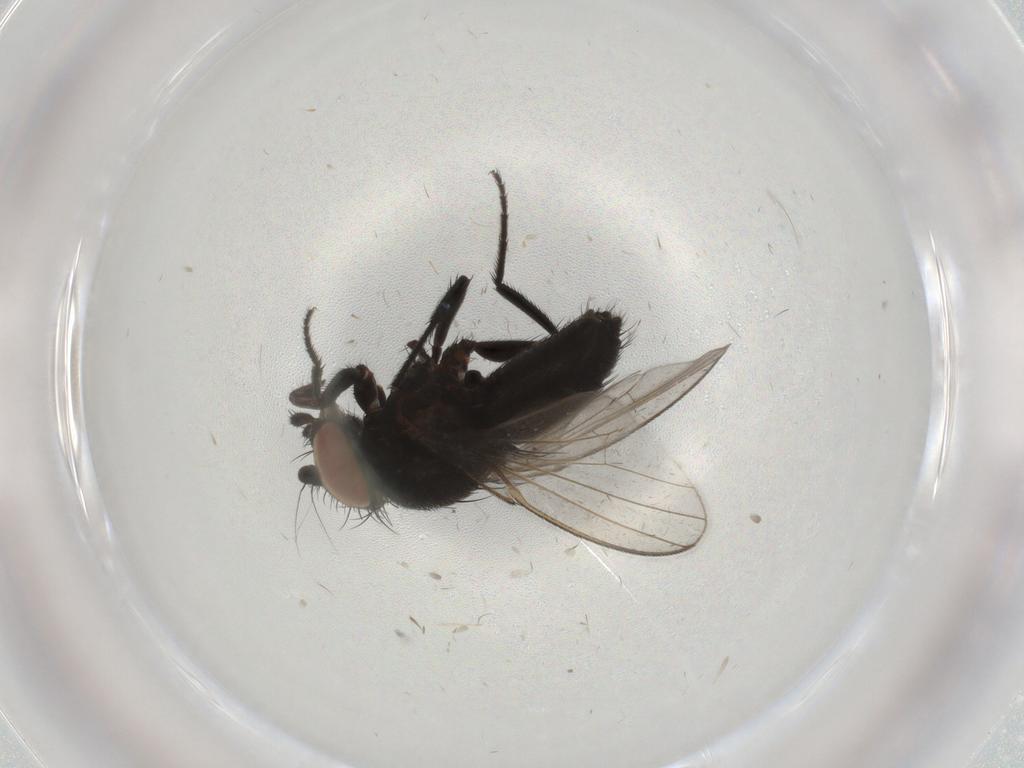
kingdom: Animalia
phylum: Arthropoda
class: Insecta
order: Diptera
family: Milichiidae
